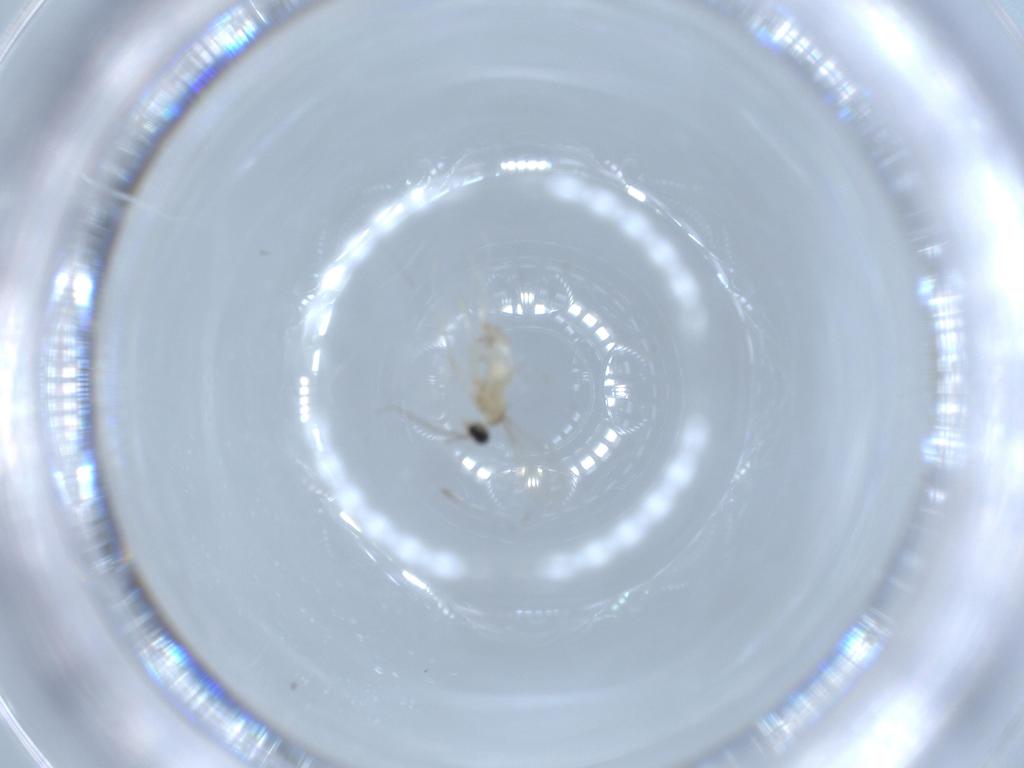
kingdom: Animalia
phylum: Arthropoda
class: Insecta
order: Diptera
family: Cecidomyiidae
